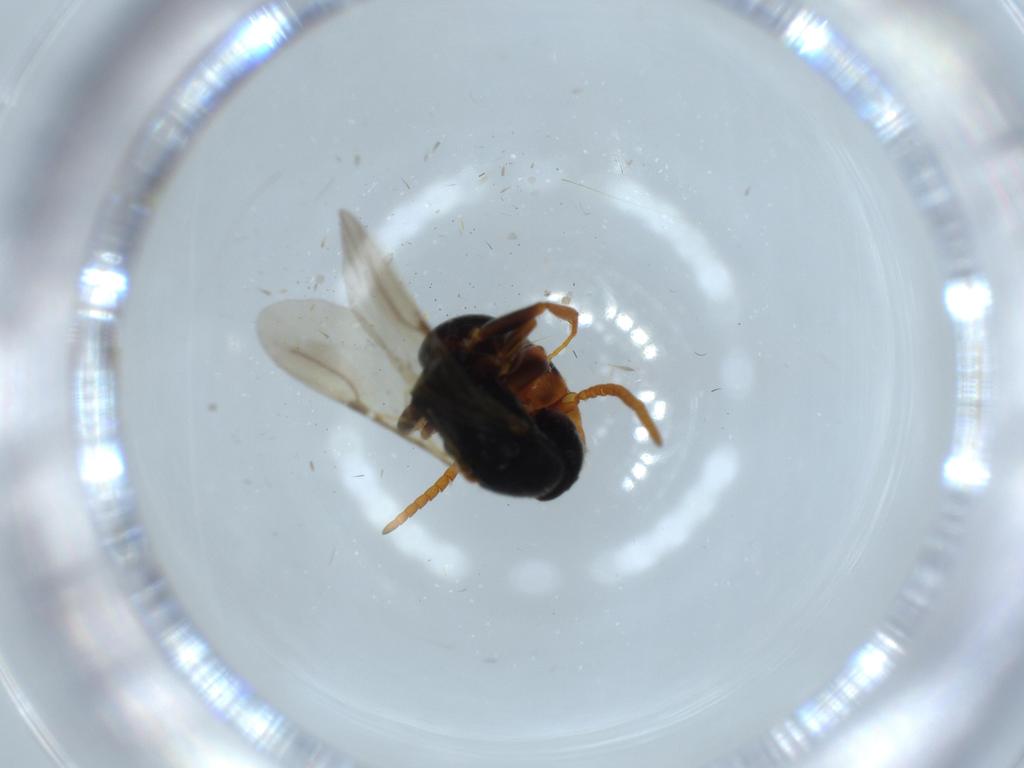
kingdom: Animalia
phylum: Arthropoda
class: Insecta
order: Hymenoptera
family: Bethylidae
